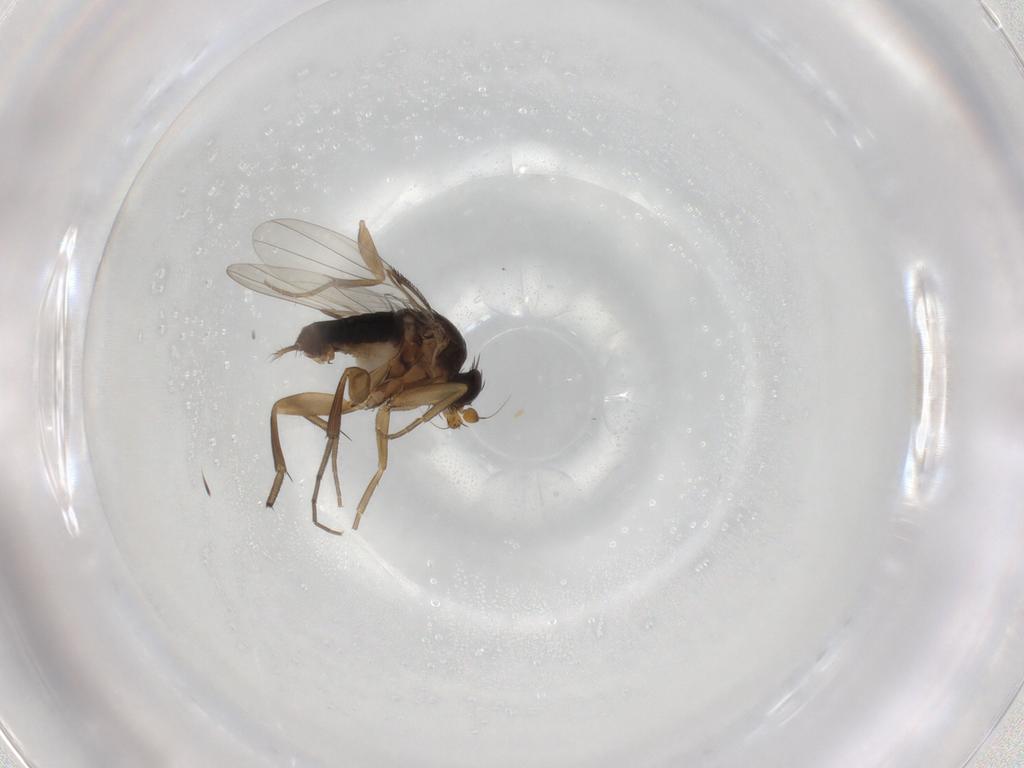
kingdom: Animalia
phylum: Arthropoda
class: Insecta
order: Diptera
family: Phoridae
